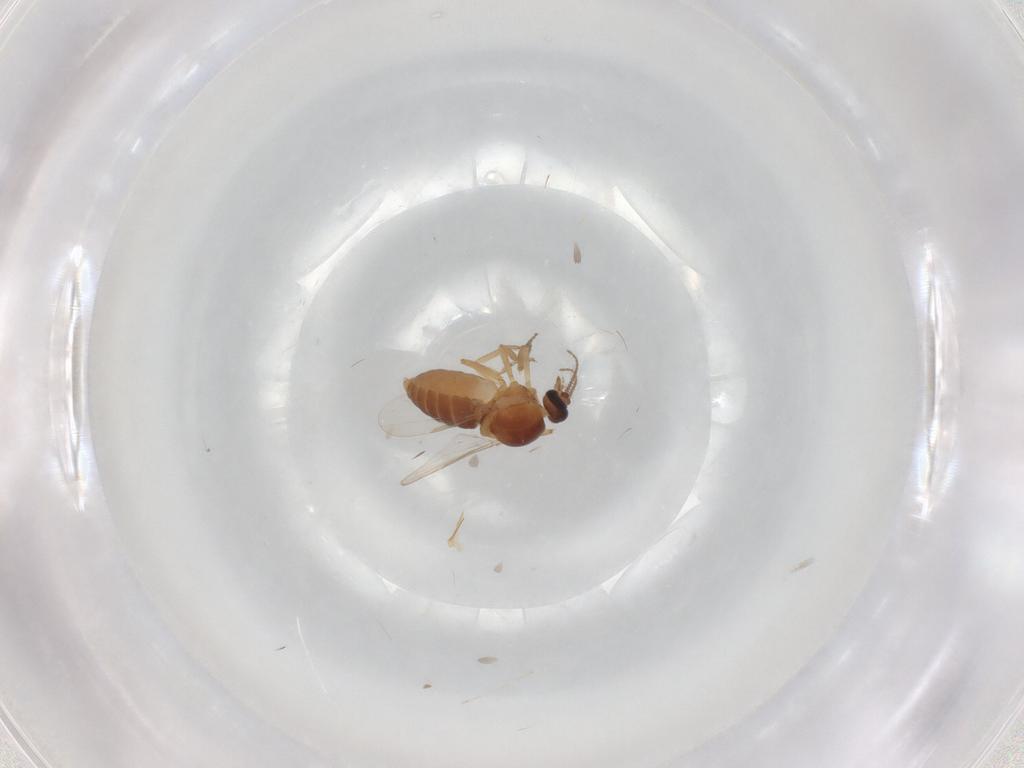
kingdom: Animalia
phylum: Arthropoda
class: Insecta
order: Diptera
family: Ceratopogonidae
